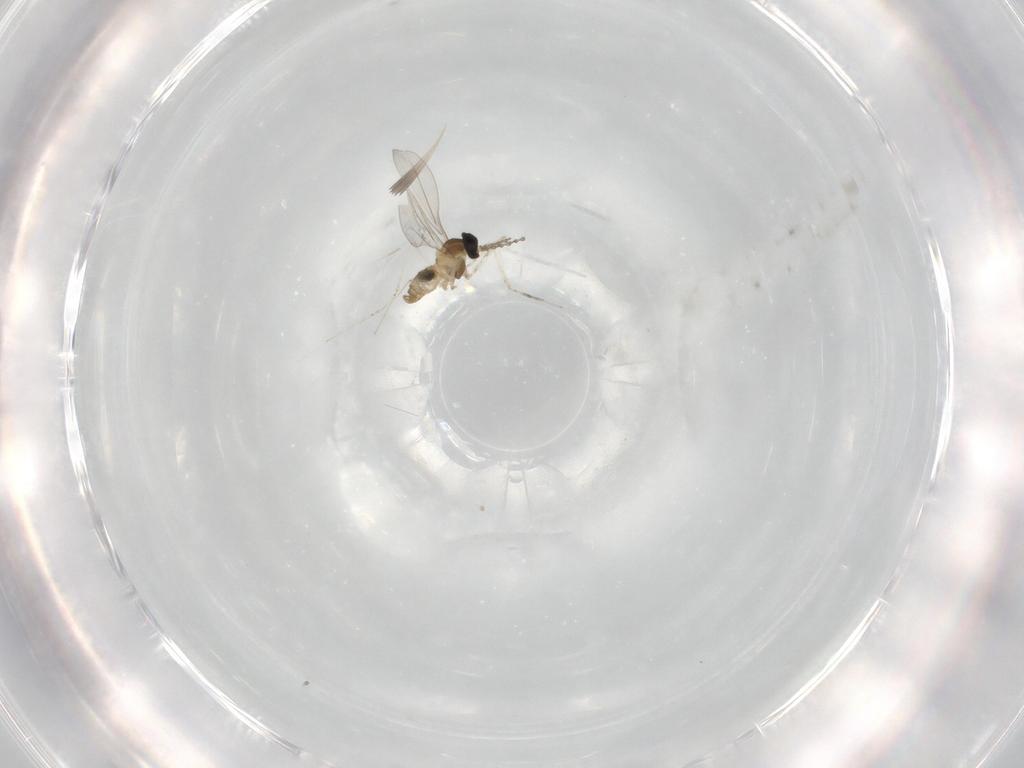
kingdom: Animalia
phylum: Arthropoda
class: Insecta
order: Diptera
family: Cecidomyiidae
